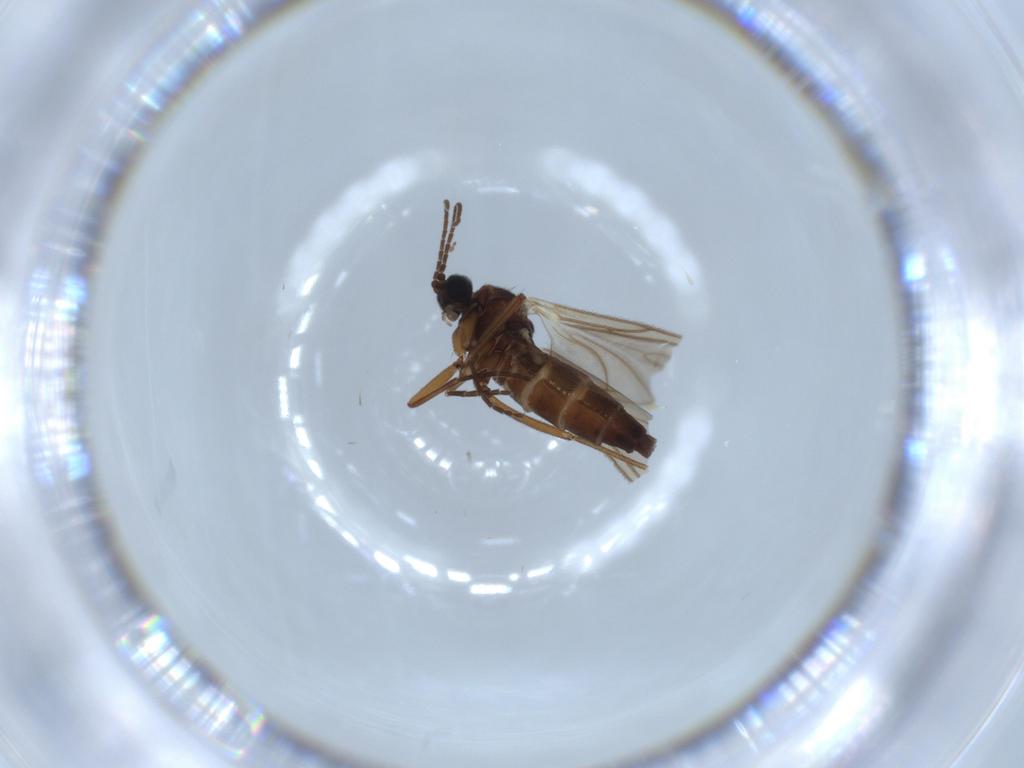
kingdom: Animalia
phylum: Arthropoda
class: Insecta
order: Diptera
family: Sciaridae
